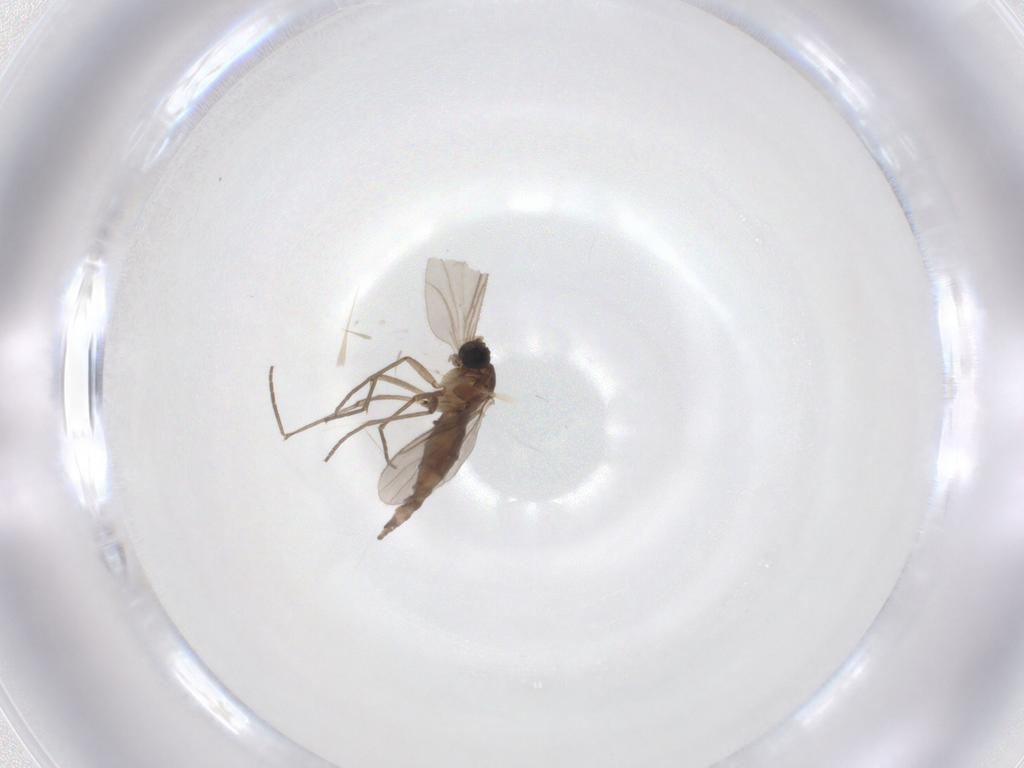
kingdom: Animalia
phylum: Arthropoda
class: Insecta
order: Diptera
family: Sciaridae
